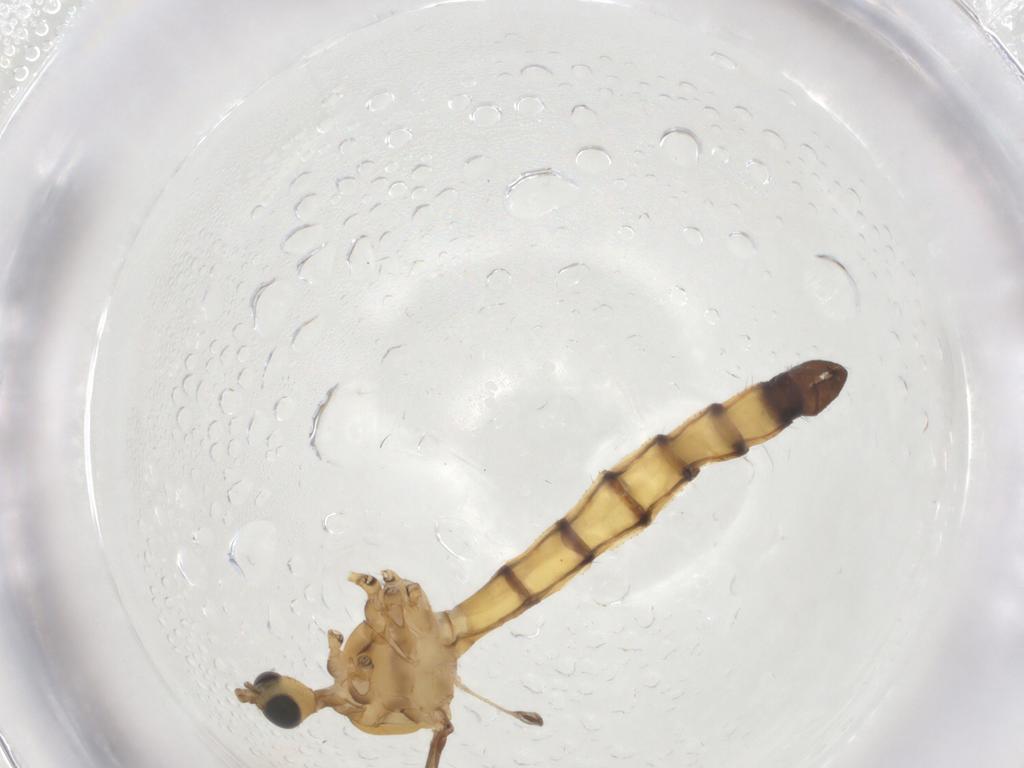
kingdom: Animalia
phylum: Arthropoda
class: Insecta
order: Diptera
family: Limoniidae
